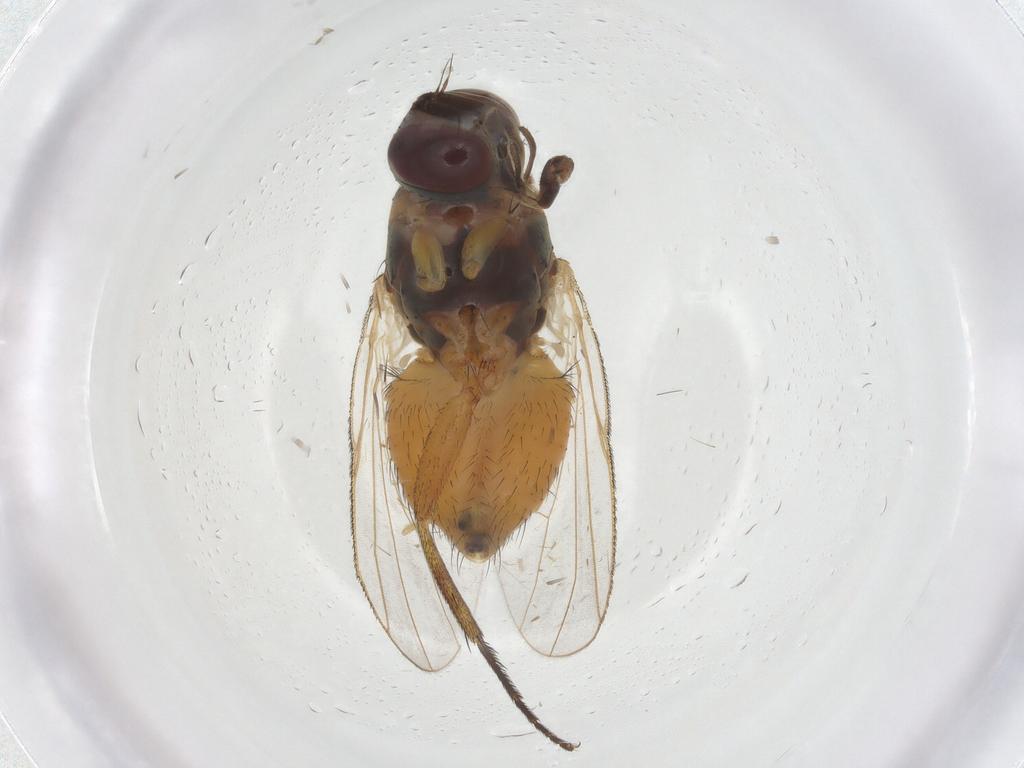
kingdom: Animalia
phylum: Arthropoda
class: Insecta
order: Diptera
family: Muscidae
